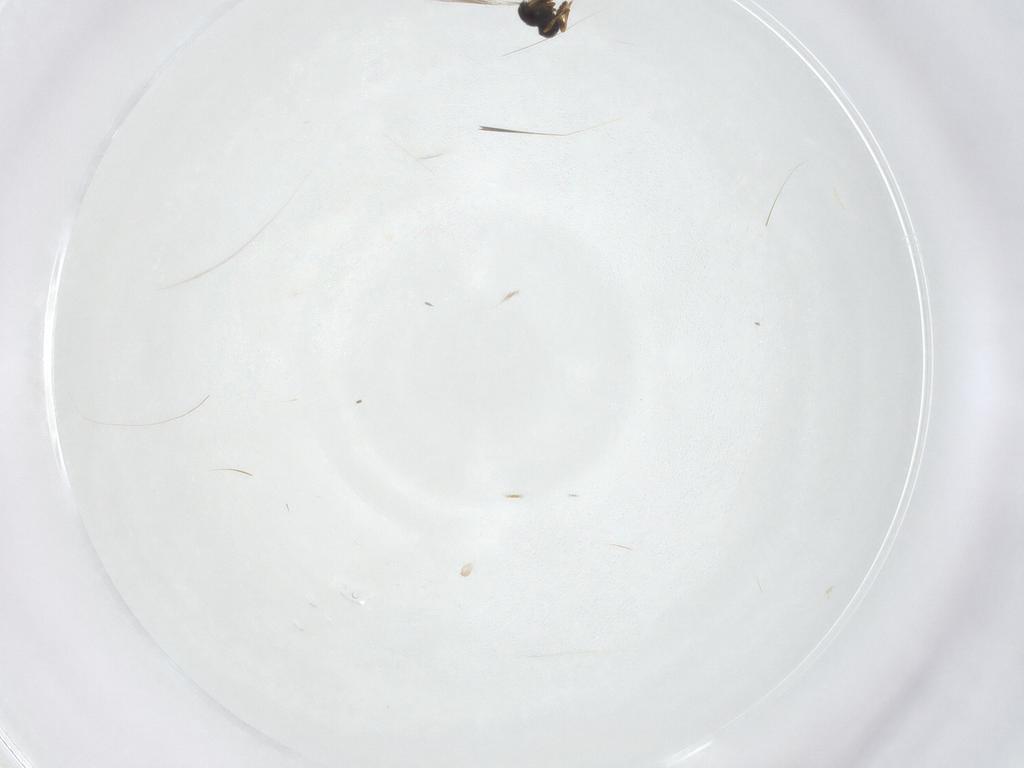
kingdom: Animalia
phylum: Arthropoda
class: Insecta
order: Hymenoptera
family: Platygastridae
